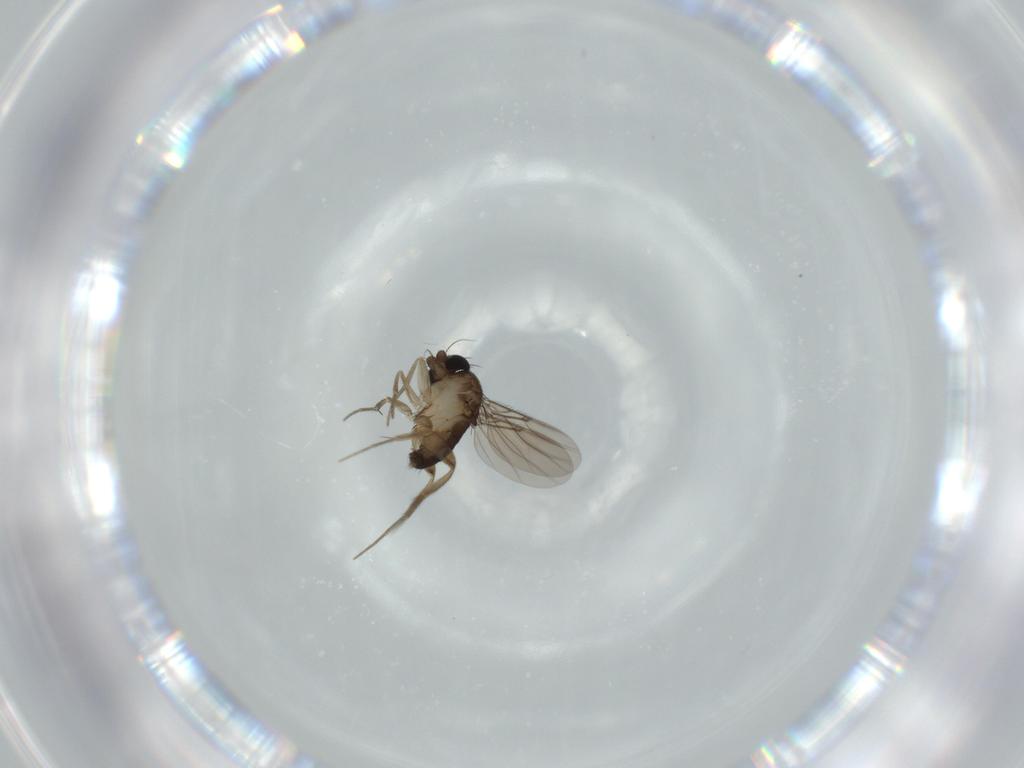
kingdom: Animalia
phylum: Arthropoda
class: Insecta
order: Diptera
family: Phoridae
